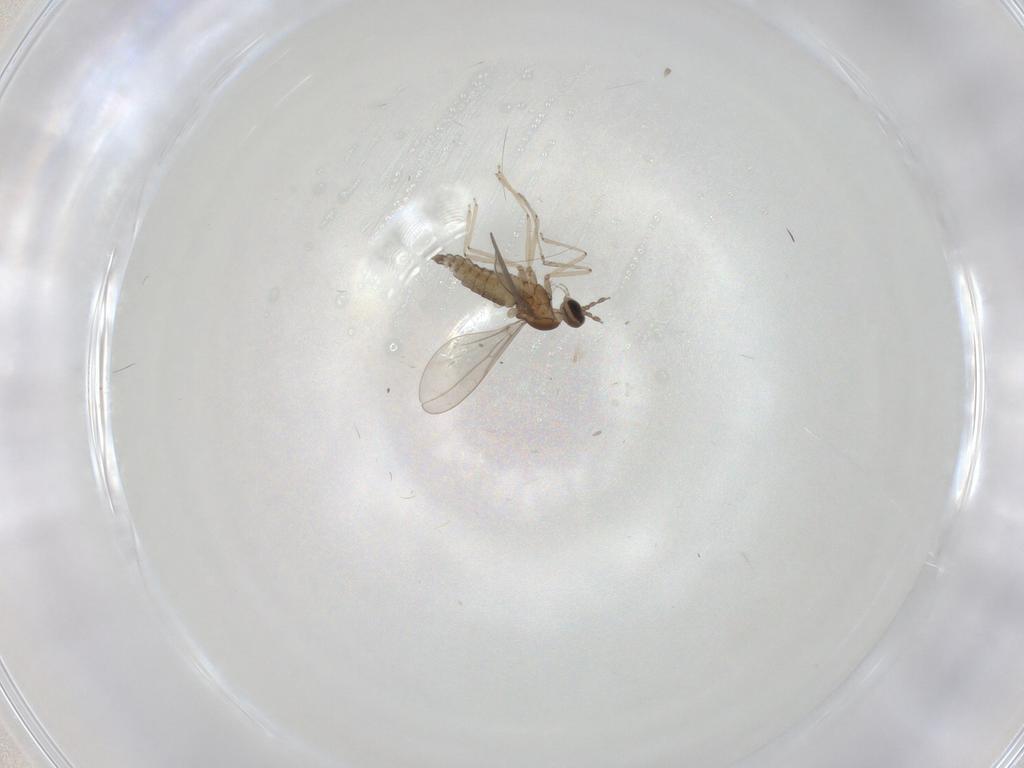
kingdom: Animalia
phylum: Arthropoda
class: Insecta
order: Diptera
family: Cecidomyiidae
